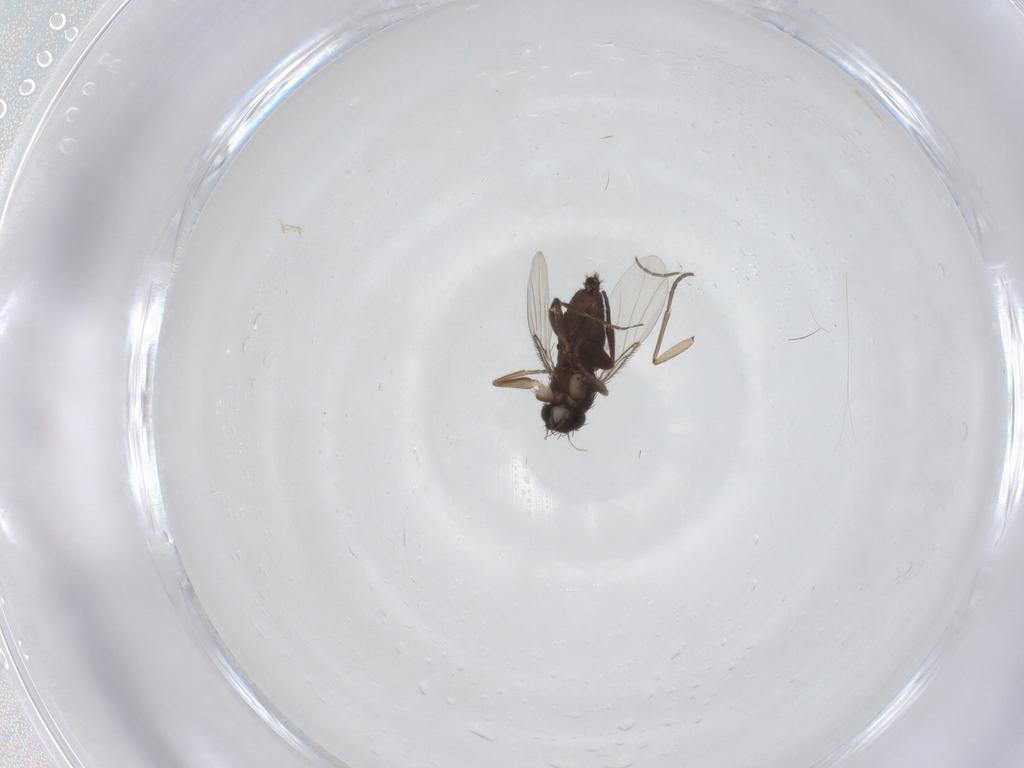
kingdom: Animalia
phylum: Arthropoda
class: Insecta
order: Diptera
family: Phoridae
